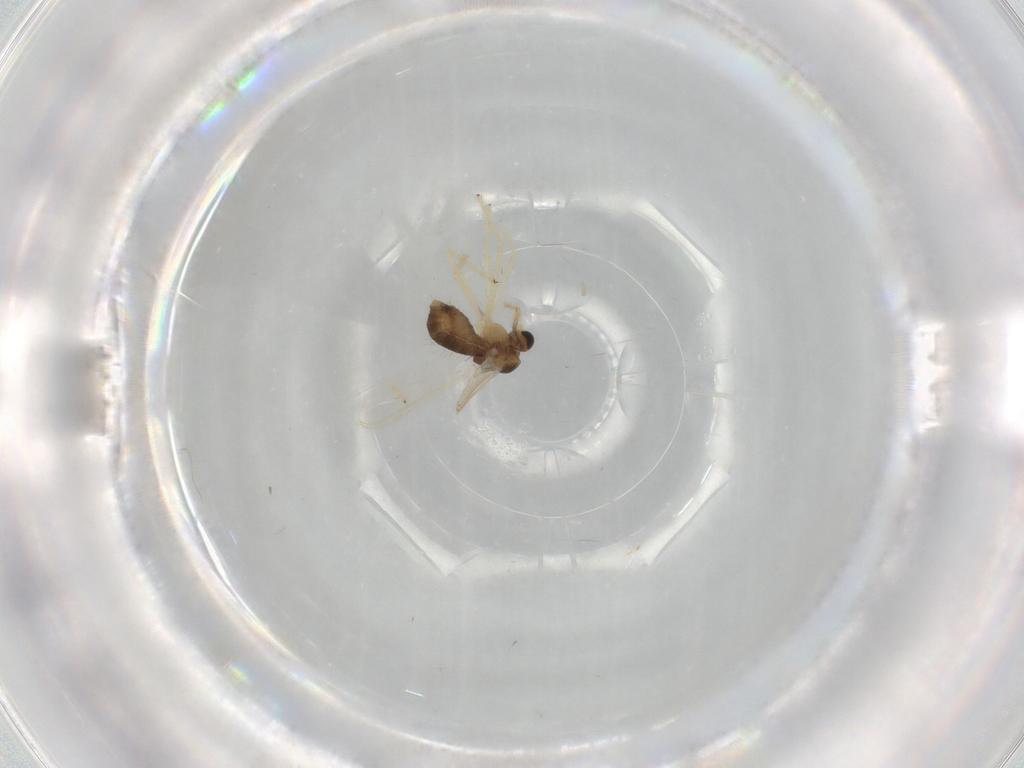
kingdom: Animalia
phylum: Arthropoda
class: Insecta
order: Diptera
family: Chironomidae
